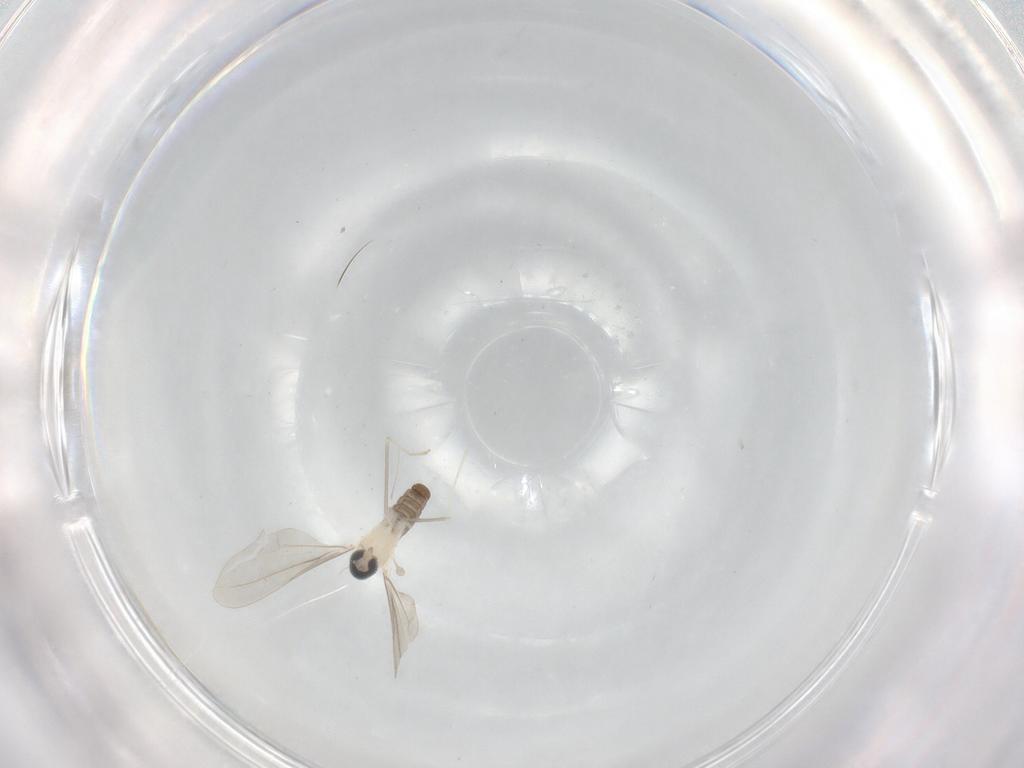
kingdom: Animalia
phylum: Arthropoda
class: Insecta
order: Diptera
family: Cecidomyiidae
